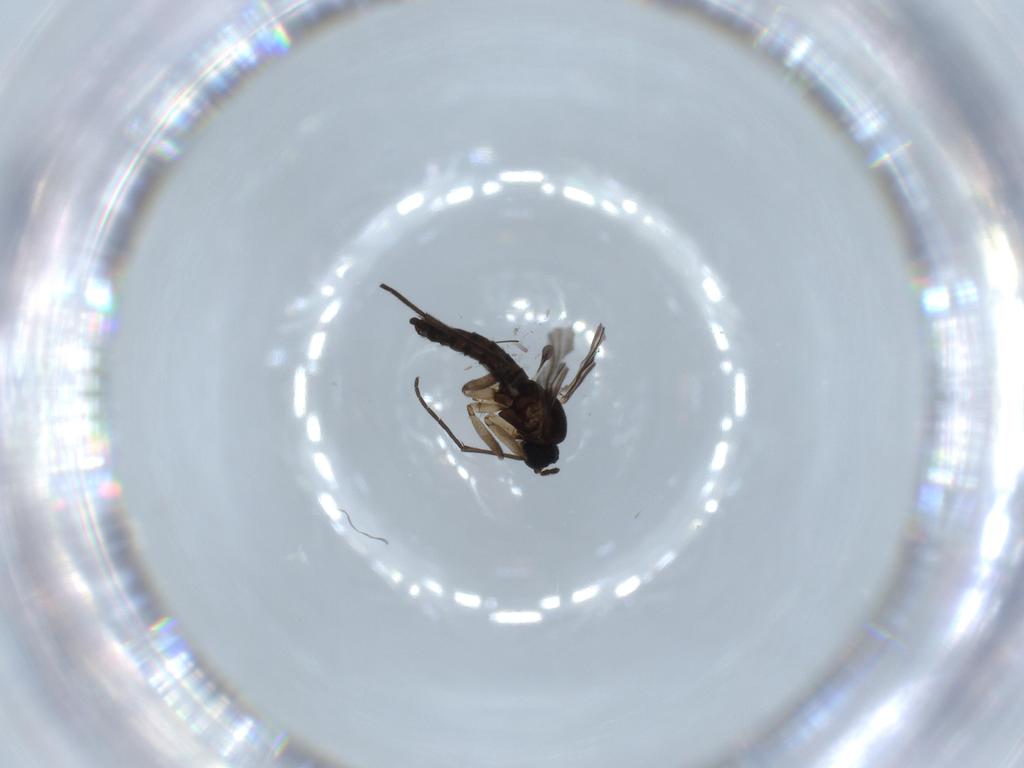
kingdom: Animalia
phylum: Arthropoda
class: Insecta
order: Diptera
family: Sciaridae
